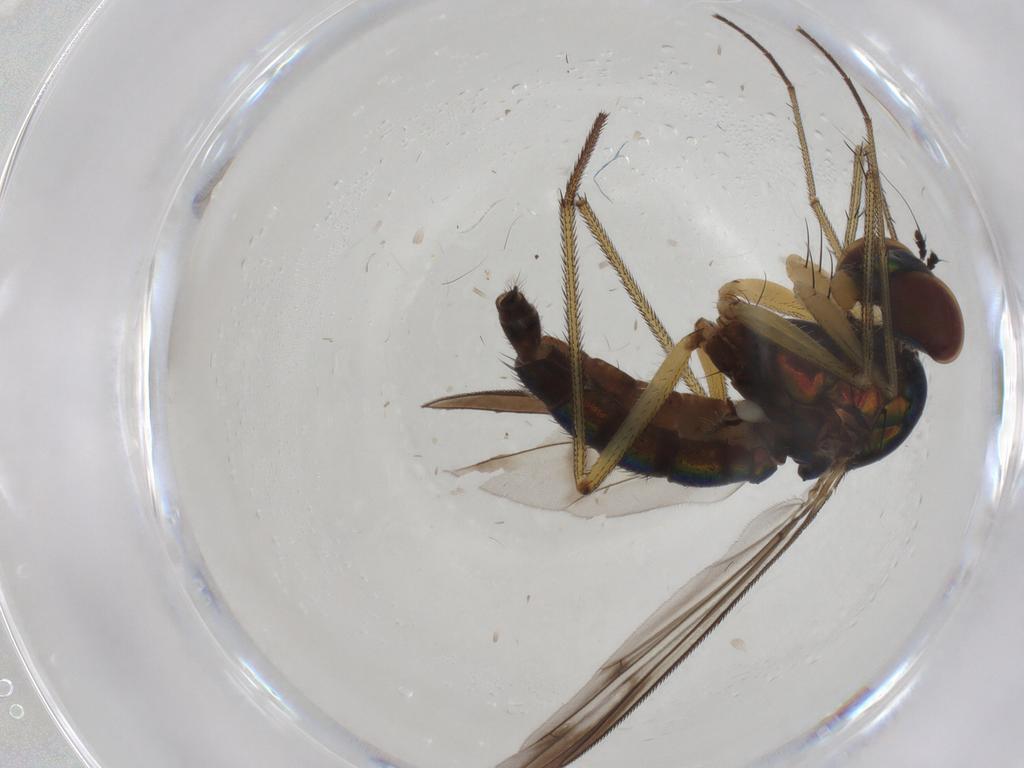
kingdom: Animalia
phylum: Arthropoda
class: Insecta
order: Diptera
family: Dolichopodidae
